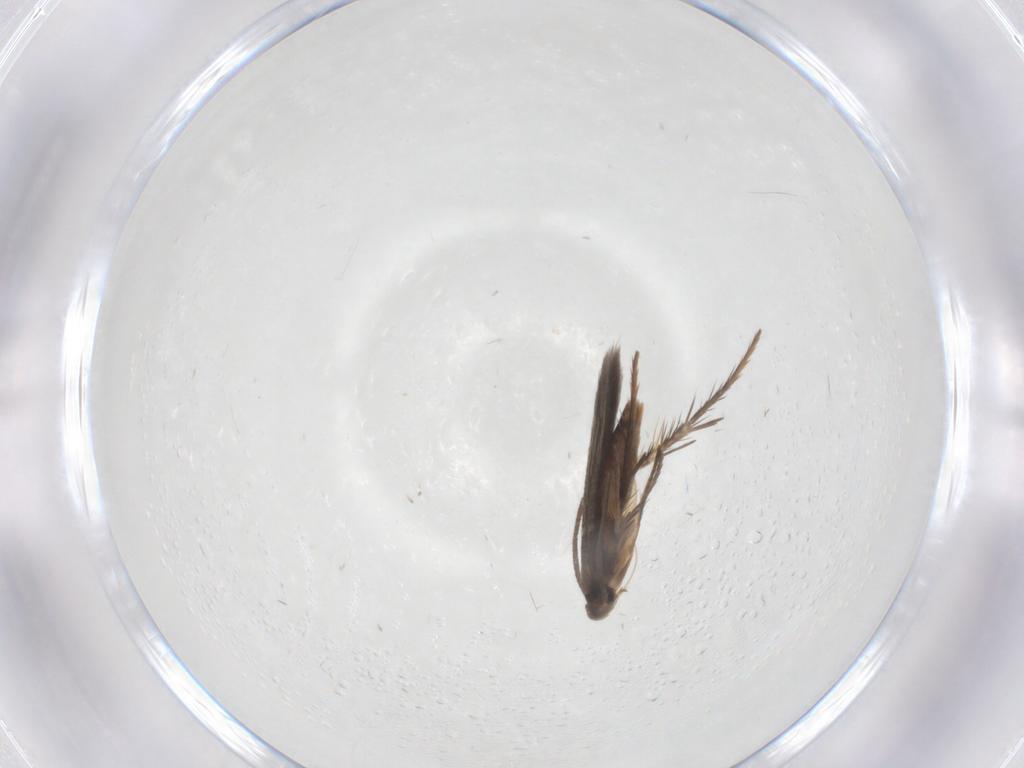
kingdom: Animalia
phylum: Arthropoda
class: Insecta
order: Lepidoptera
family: Pyralidae
